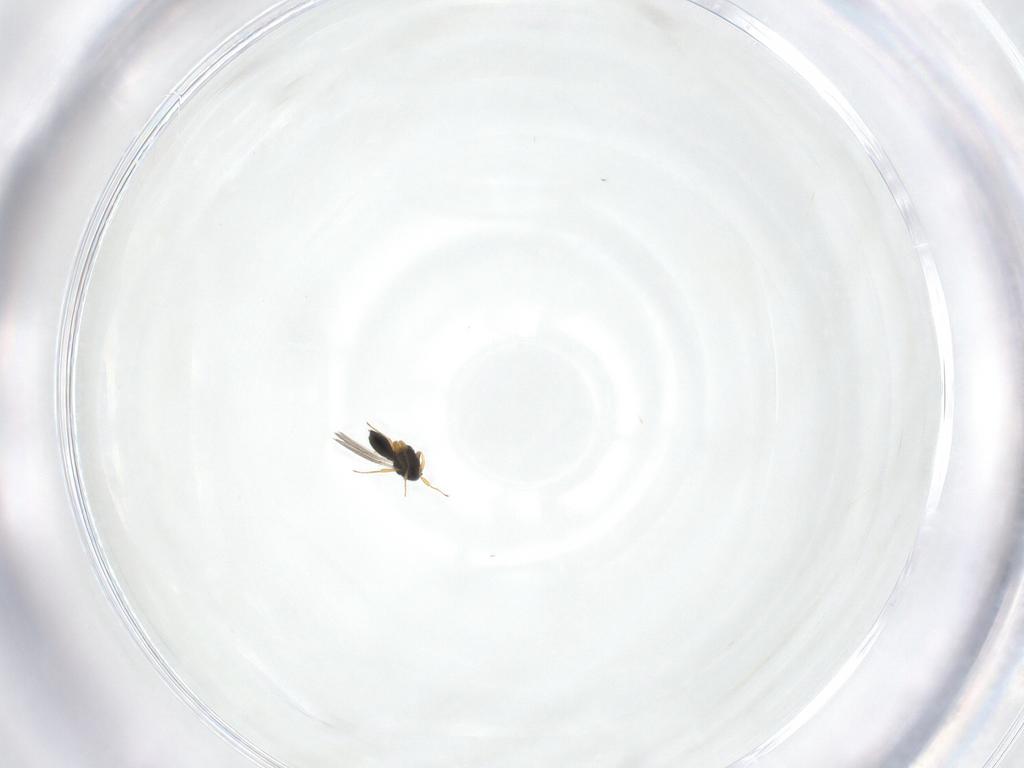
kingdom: Animalia
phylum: Arthropoda
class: Insecta
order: Hymenoptera
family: Scelionidae
